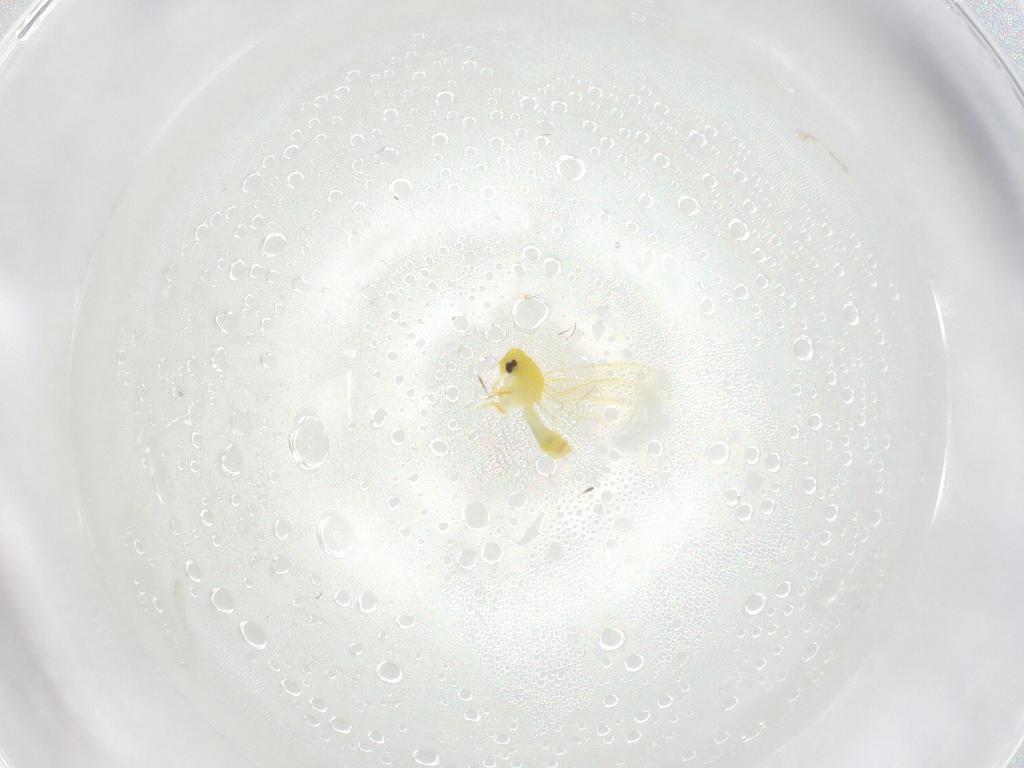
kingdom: Animalia
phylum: Arthropoda
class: Insecta
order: Hemiptera
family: Aleyrodidae
